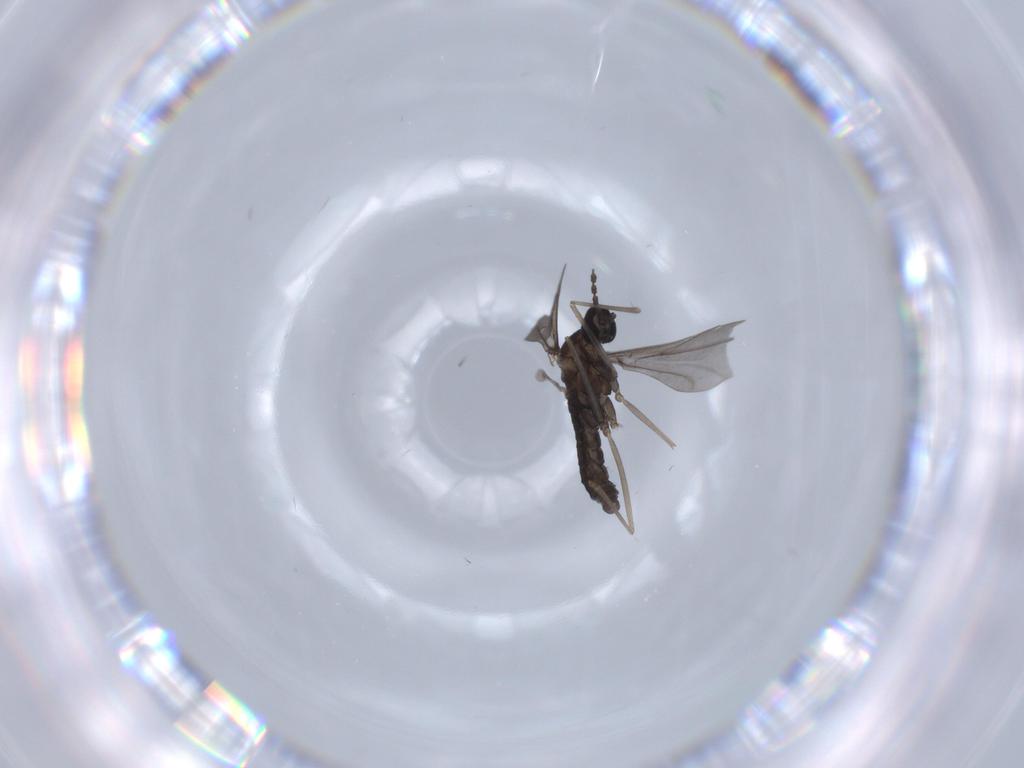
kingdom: Animalia
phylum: Arthropoda
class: Insecta
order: Diptera
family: Cecidomyiidae
